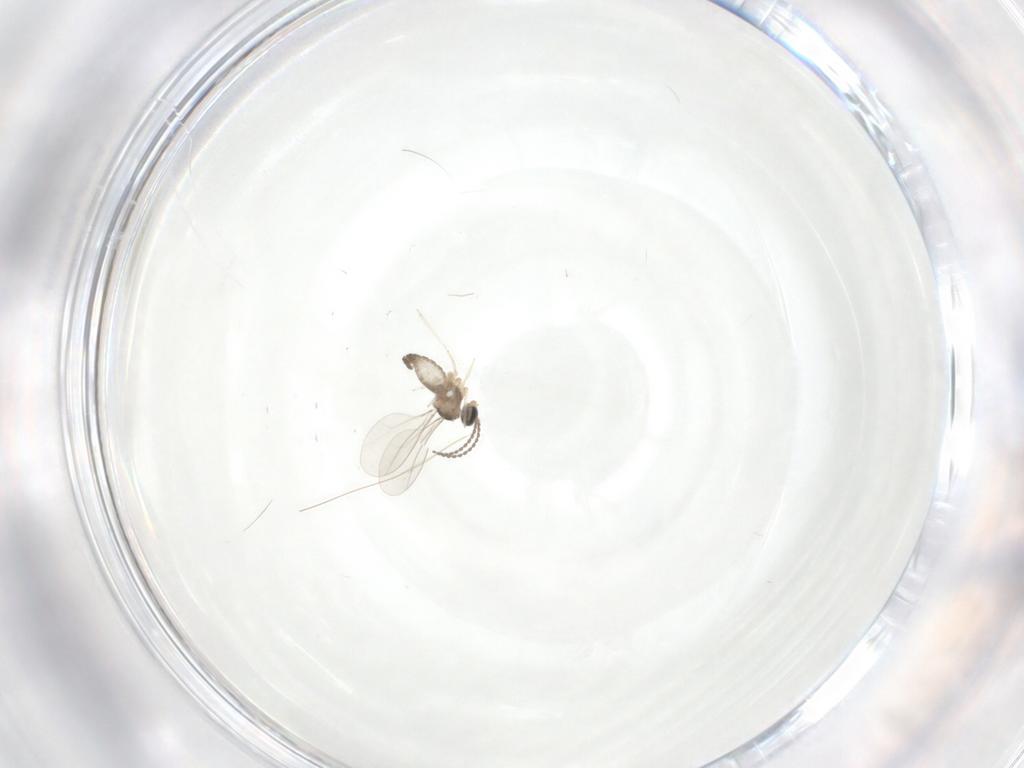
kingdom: Animalia
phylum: Arthropoda
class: Insecta
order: Diptera
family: Cecidomyiidae
